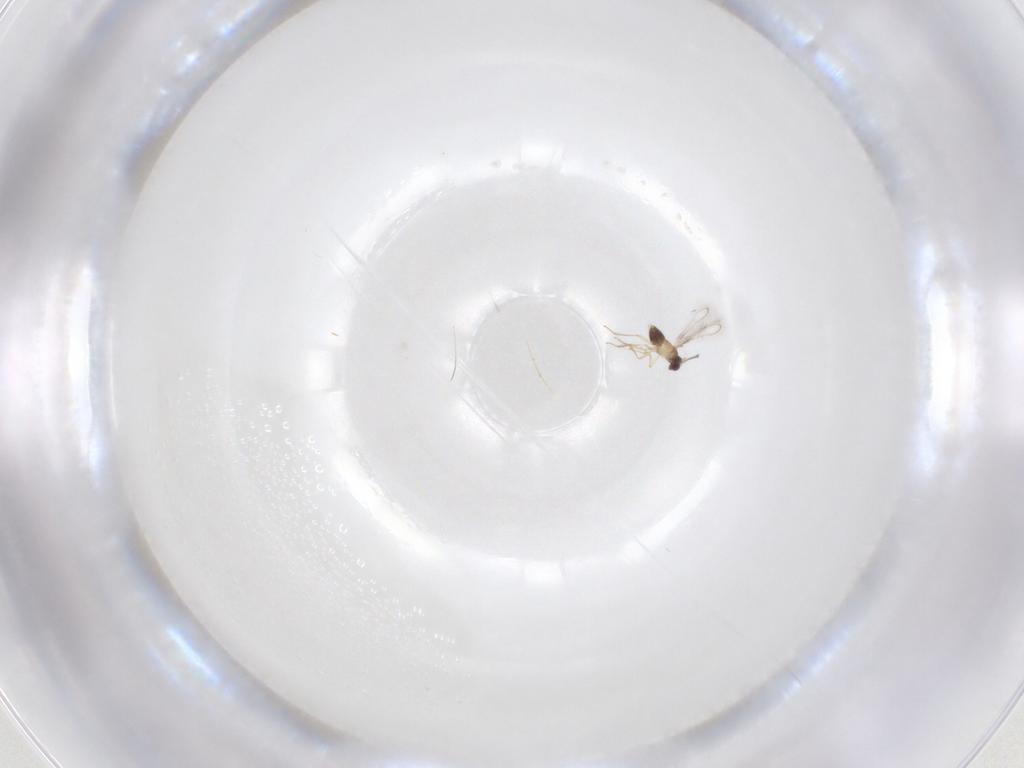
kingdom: Animalia
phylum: Arthropoda
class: Insecta
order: Hymenoptera
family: Mymaridae
